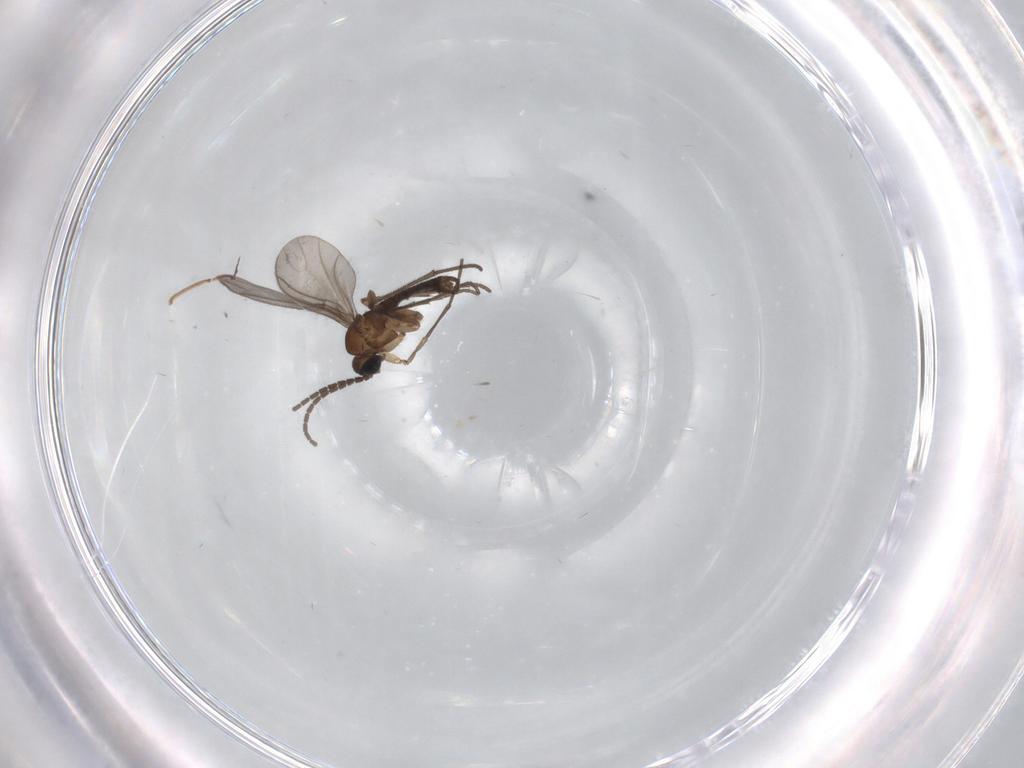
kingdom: Animalia
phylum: Arthropoda
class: Insecta
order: Diptera
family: Sciaridae
